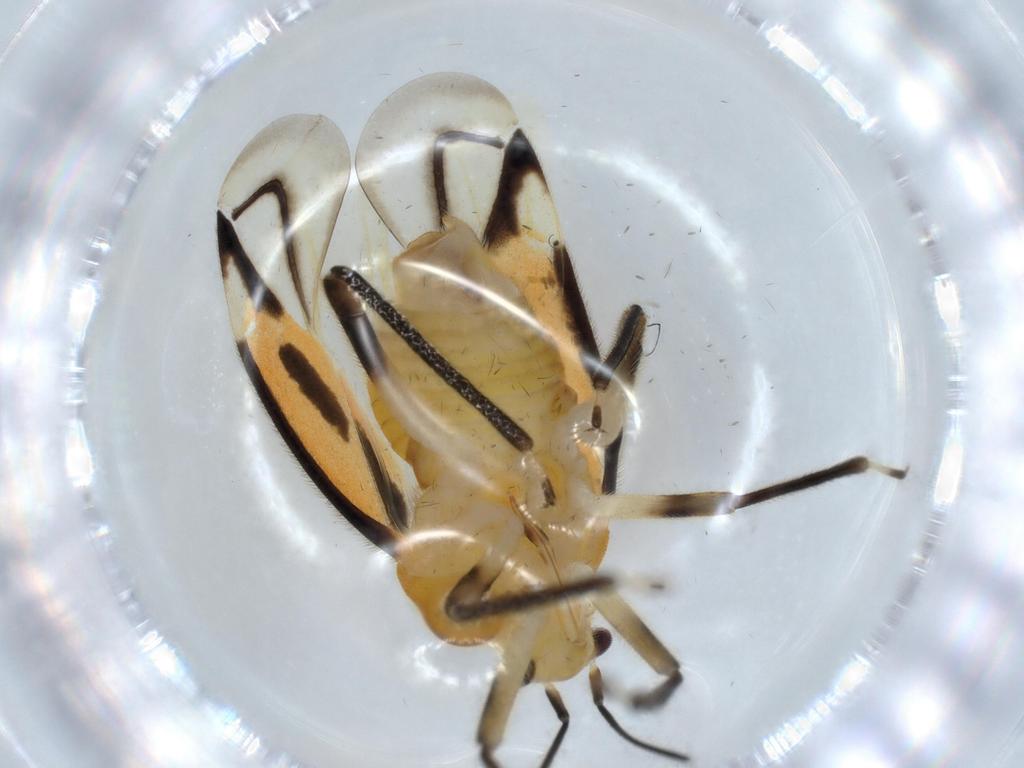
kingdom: Animalia
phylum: Arthropoda
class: Insecta
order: Hemiptera
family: Miridae
